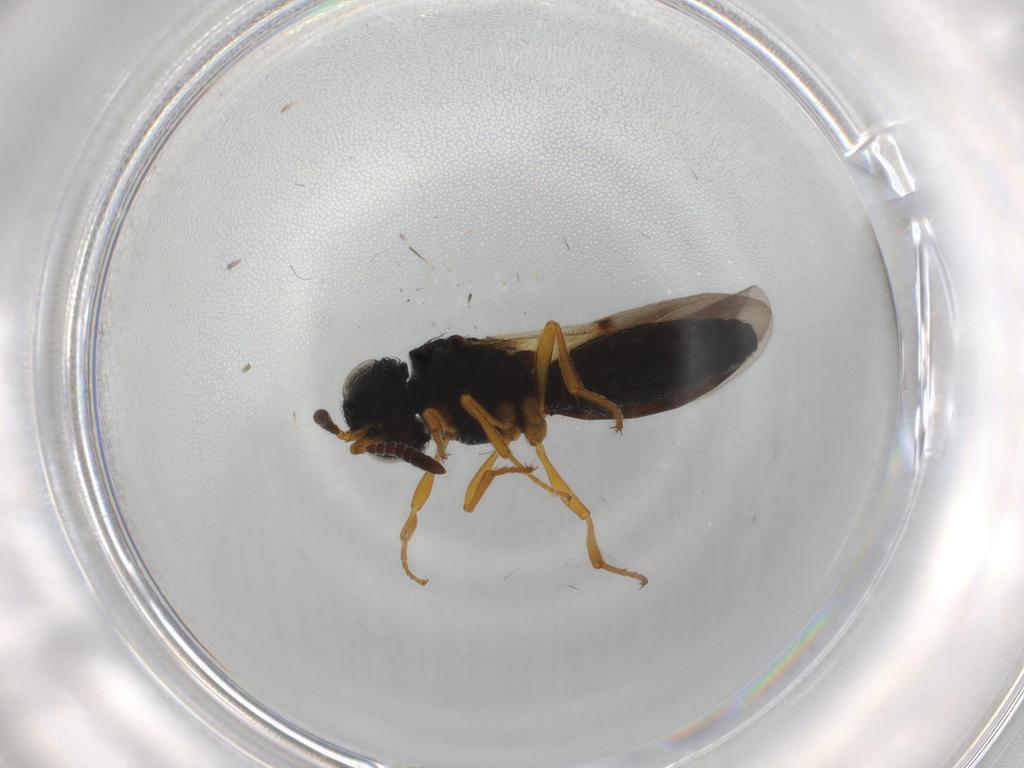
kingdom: Animalia
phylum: Arthropoda
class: Insecta
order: Hymenoptera
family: Scelionidae
